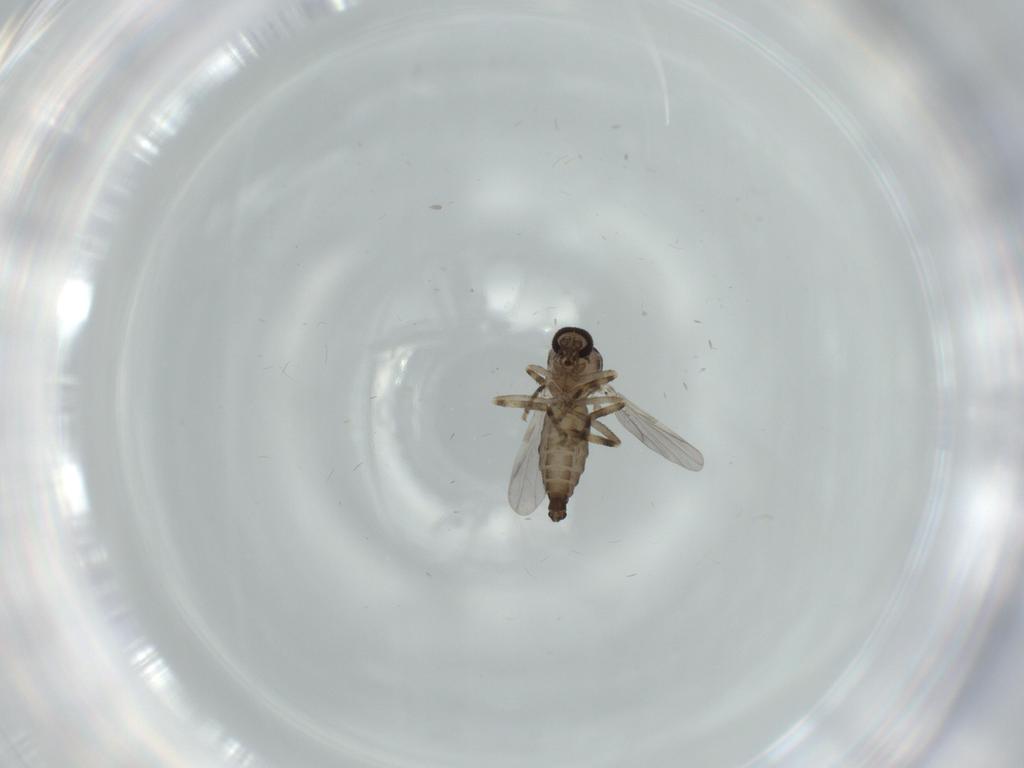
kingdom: Animalia
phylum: Arthropoda
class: Insecta
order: Diptera
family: Ceratopogonidae
